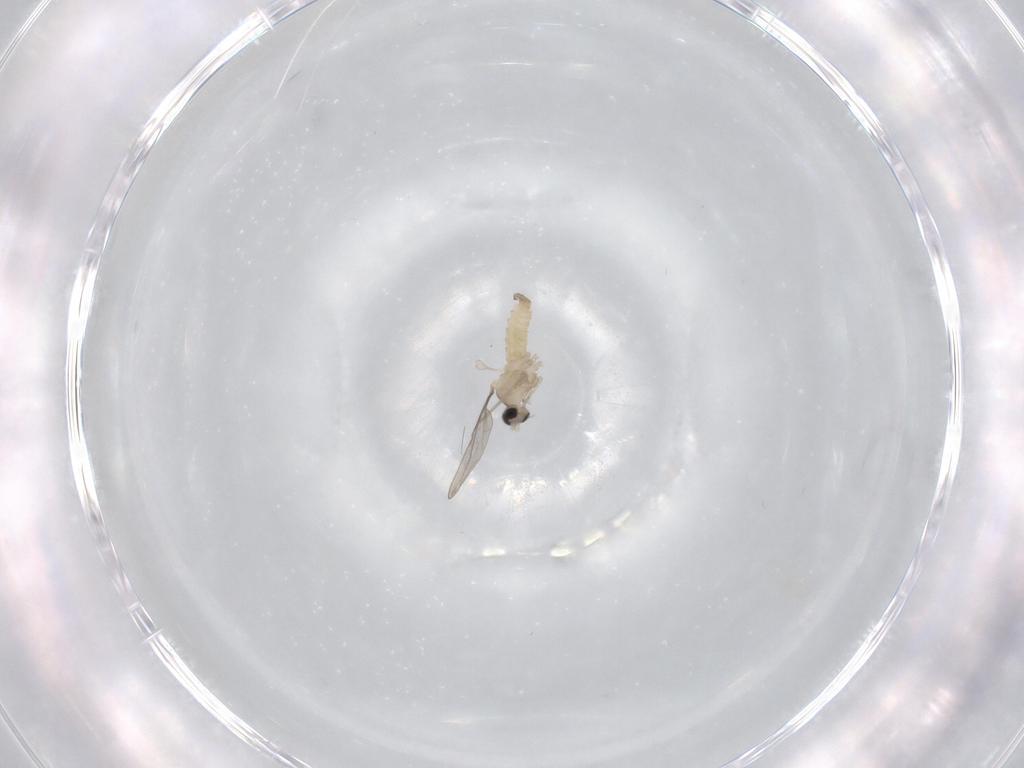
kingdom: Animalia
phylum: Arthropoda
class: Insecta
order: Diptera
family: Cecidomyiidae
